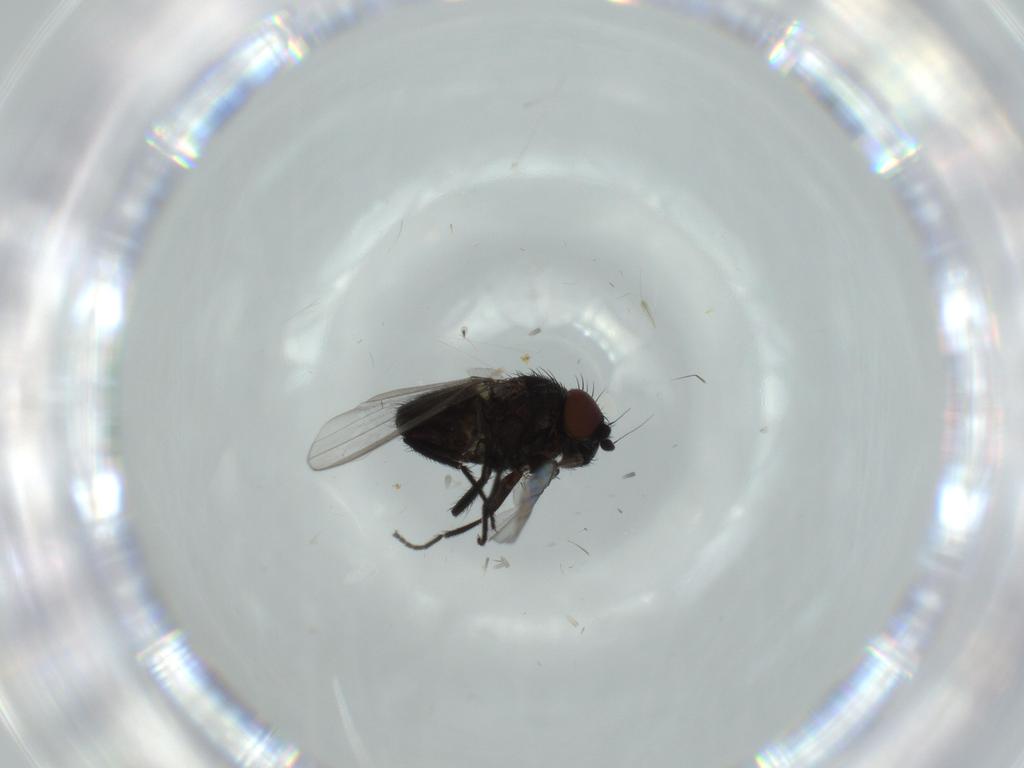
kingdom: Animalia
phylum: Arthropoda
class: Insecta
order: Diptera
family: Ceratopogonidae
